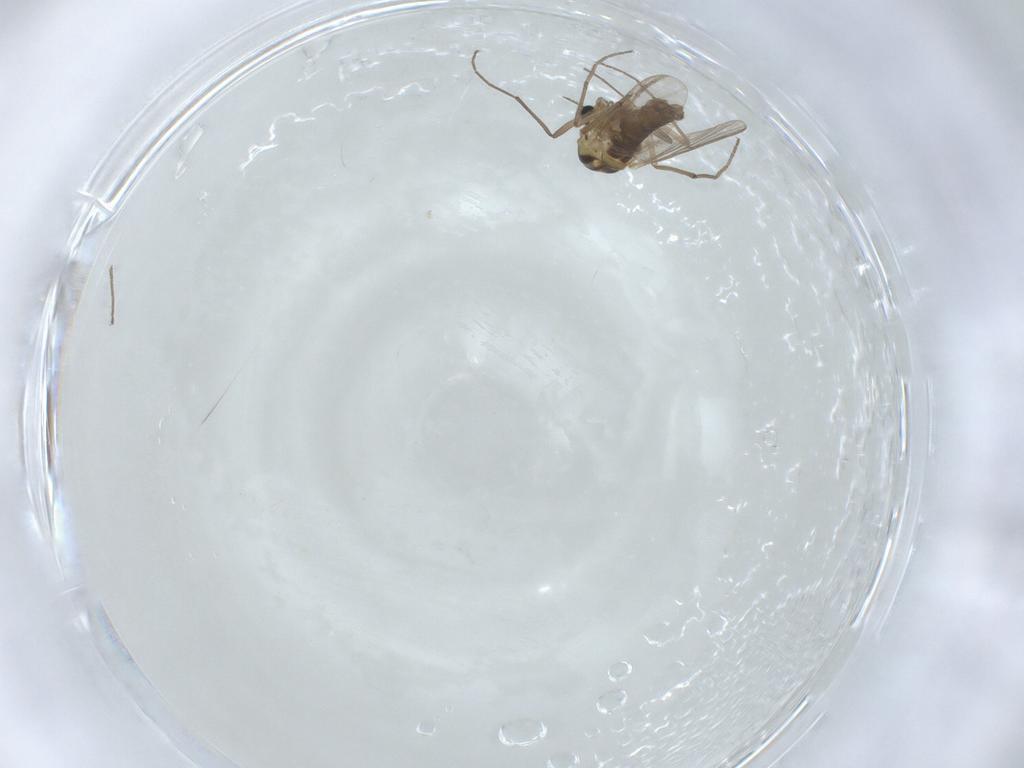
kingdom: Animalia
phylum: Arthropoda
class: Insecta
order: Diptera
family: Chironomidae
